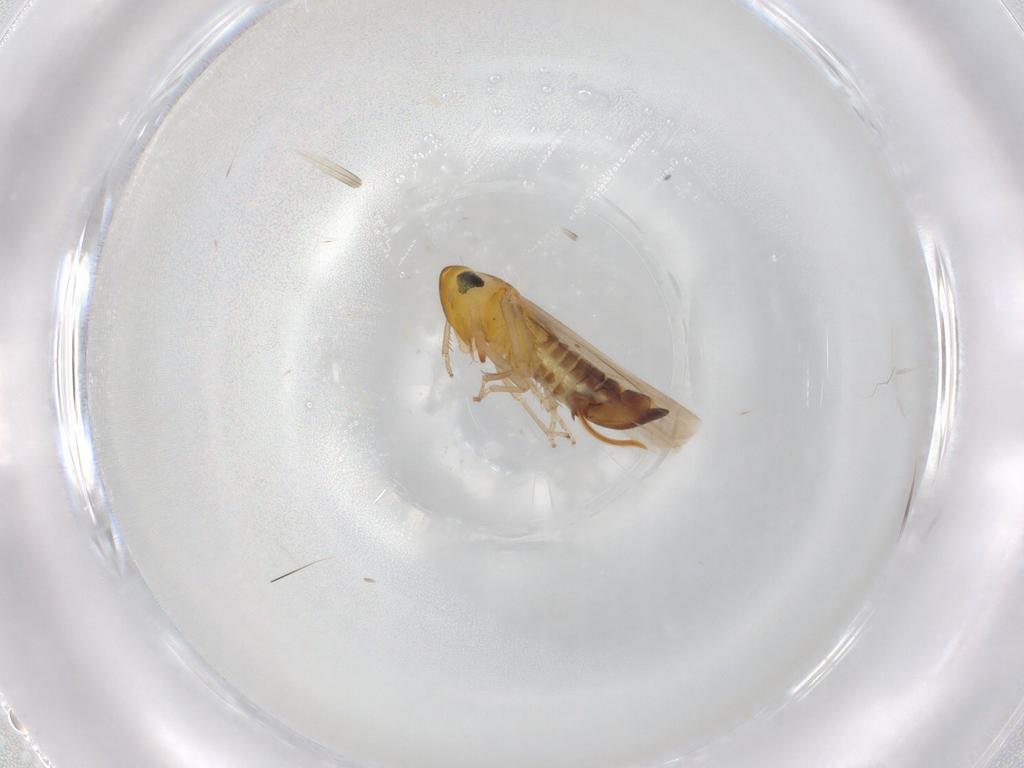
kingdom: Animalia
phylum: Arthropoda
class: Insecta
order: Hemiptera
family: Cicadellidae
